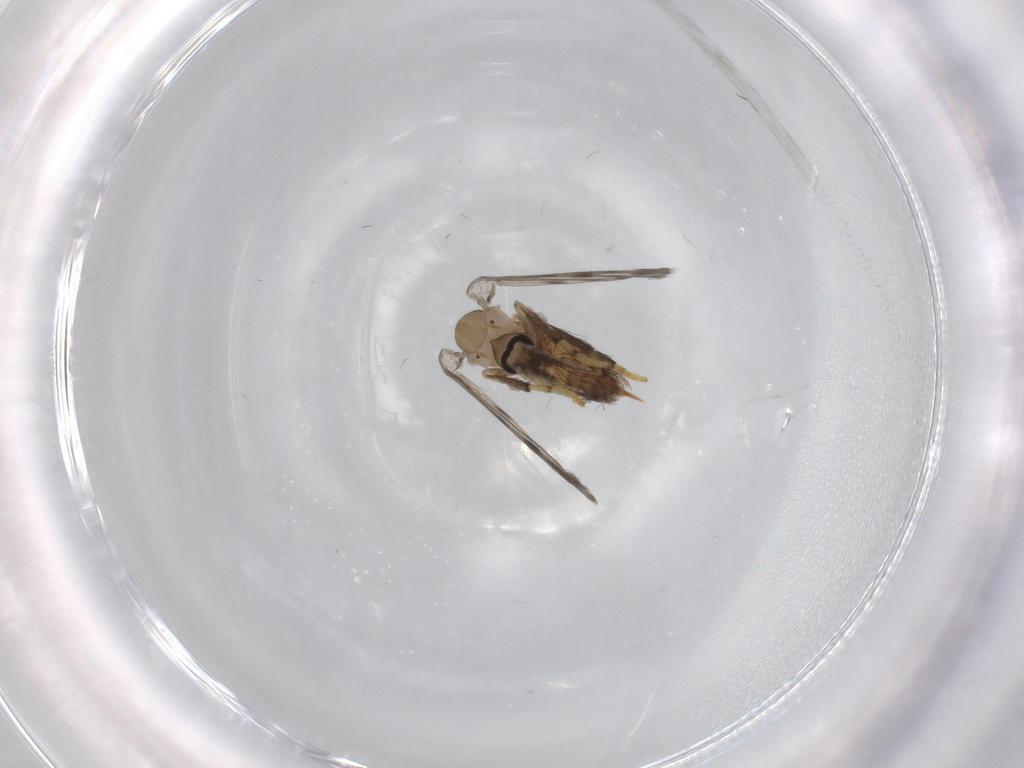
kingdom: Animalia
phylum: Arthropoda
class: Insecta
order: Diptera
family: Psychodidae
